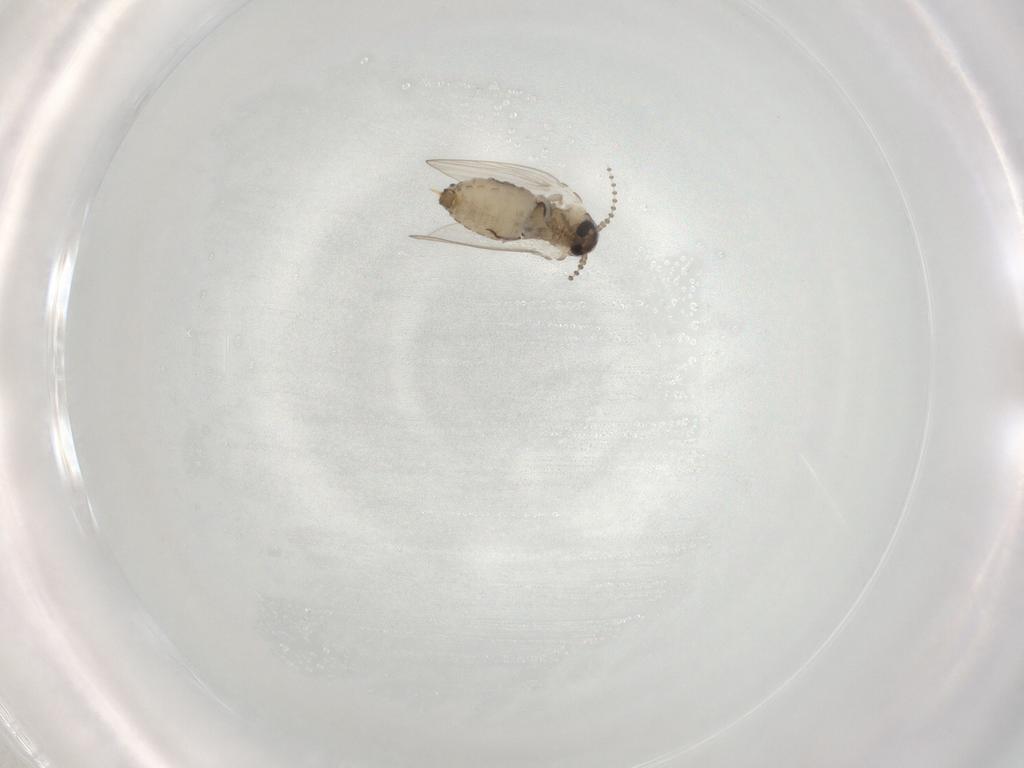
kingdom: Animalia
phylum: Arthropoda
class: Insecta
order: Diptera
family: Psychodidae
